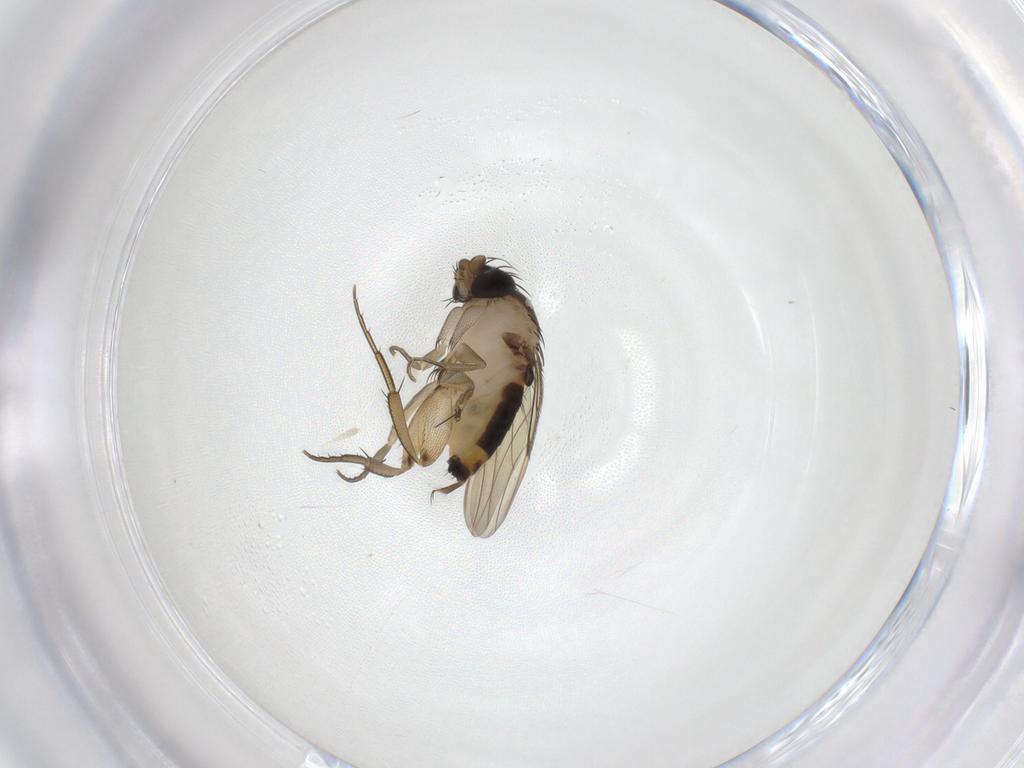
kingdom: Animalia
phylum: Arthropoda
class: Insecta
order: Diptera
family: Phoridae
